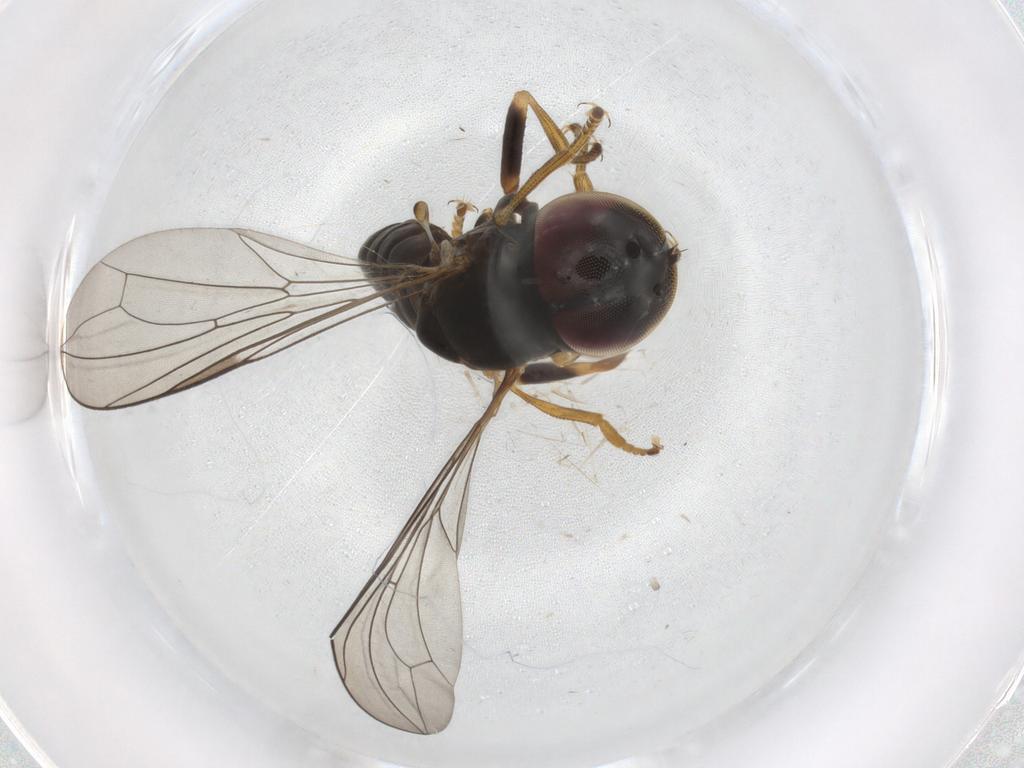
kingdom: Animalia
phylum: Arthropoda
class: Insecta
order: Diptera
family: Pipunculidae
